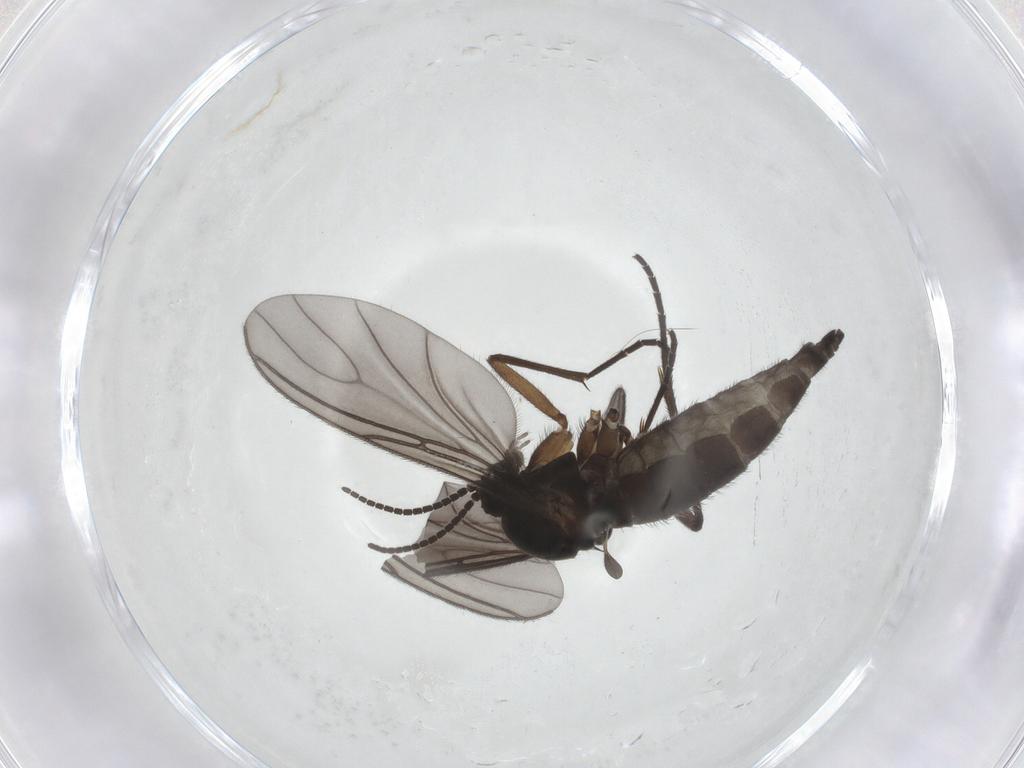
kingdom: Animalia
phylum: Arthropoda
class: Insecta
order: Diptera
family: Sciaridae
